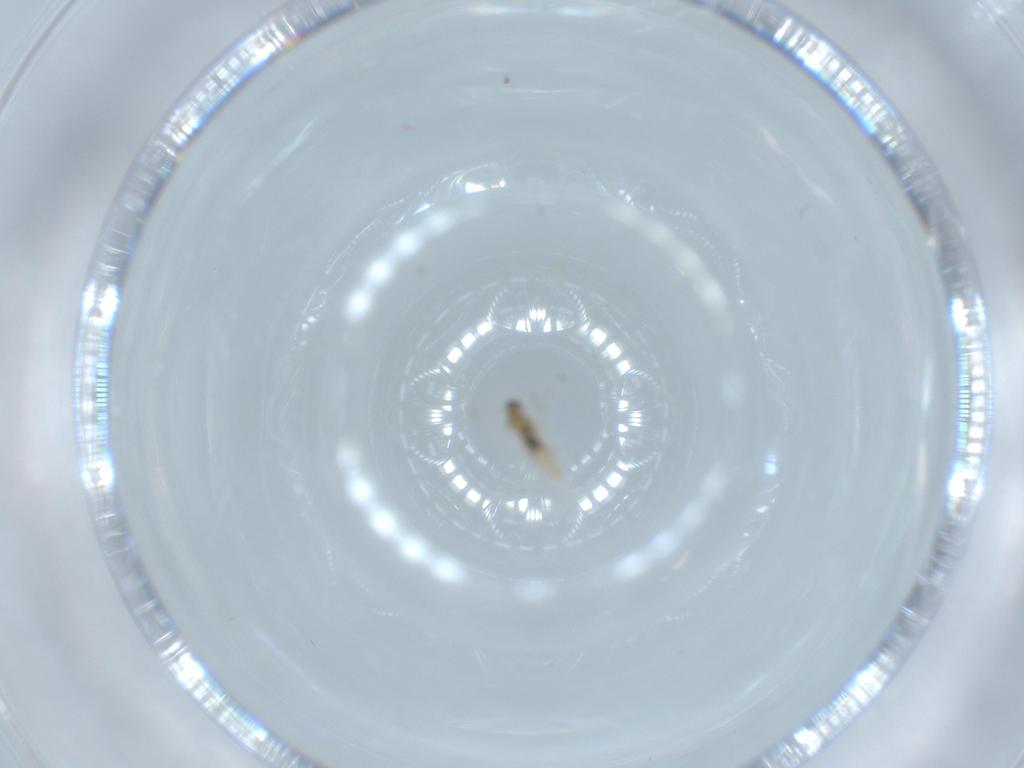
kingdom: Animalia
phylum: Arthropoda
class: Insecta
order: Diptera
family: Cecidomyiidae
